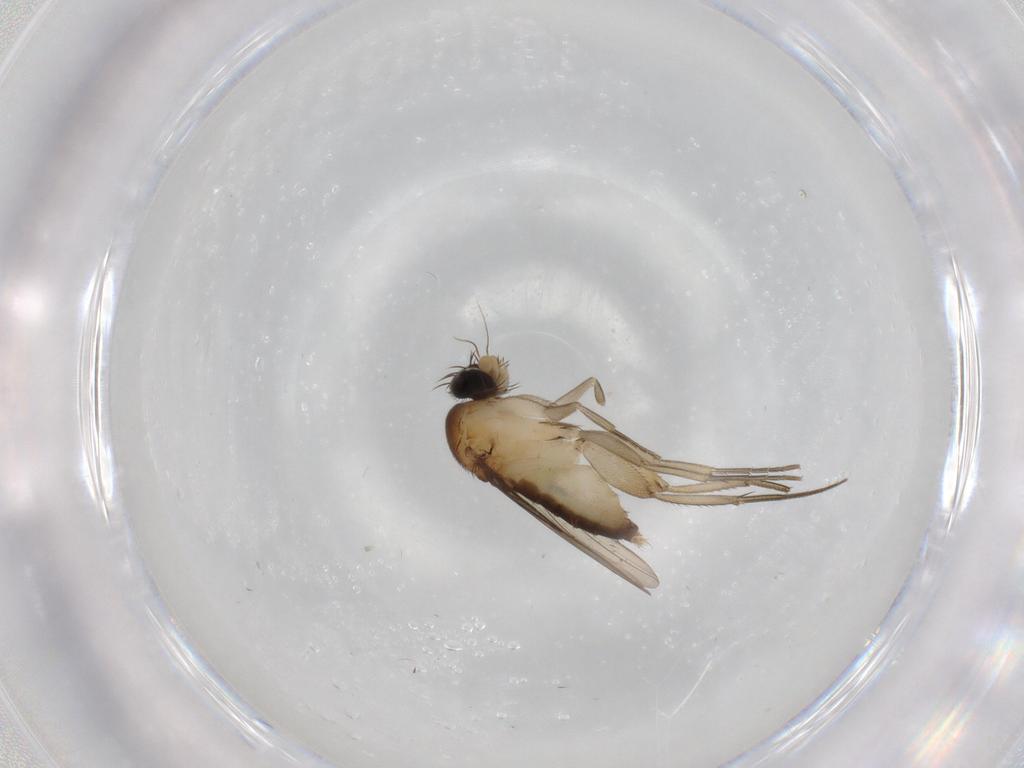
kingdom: Animalia
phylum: Arthropoda
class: Insecta
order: Diptera
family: Phoridae
